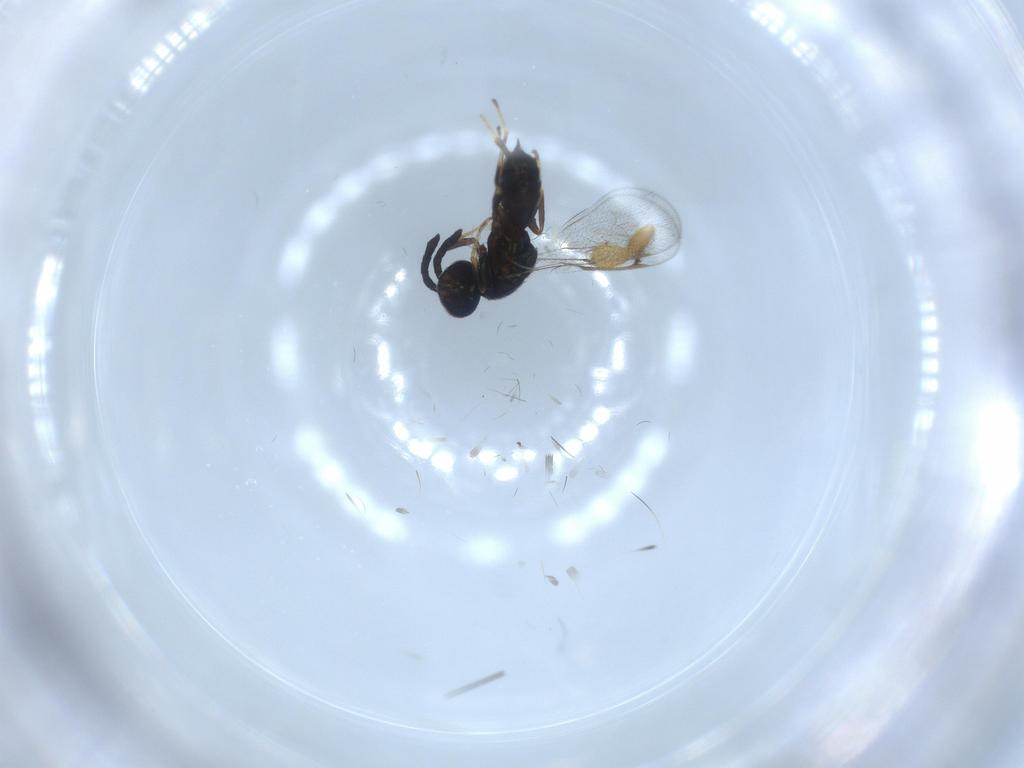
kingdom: Animalia
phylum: Arthropoda
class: Insecta
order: Hymenoptera
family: Torymidae
